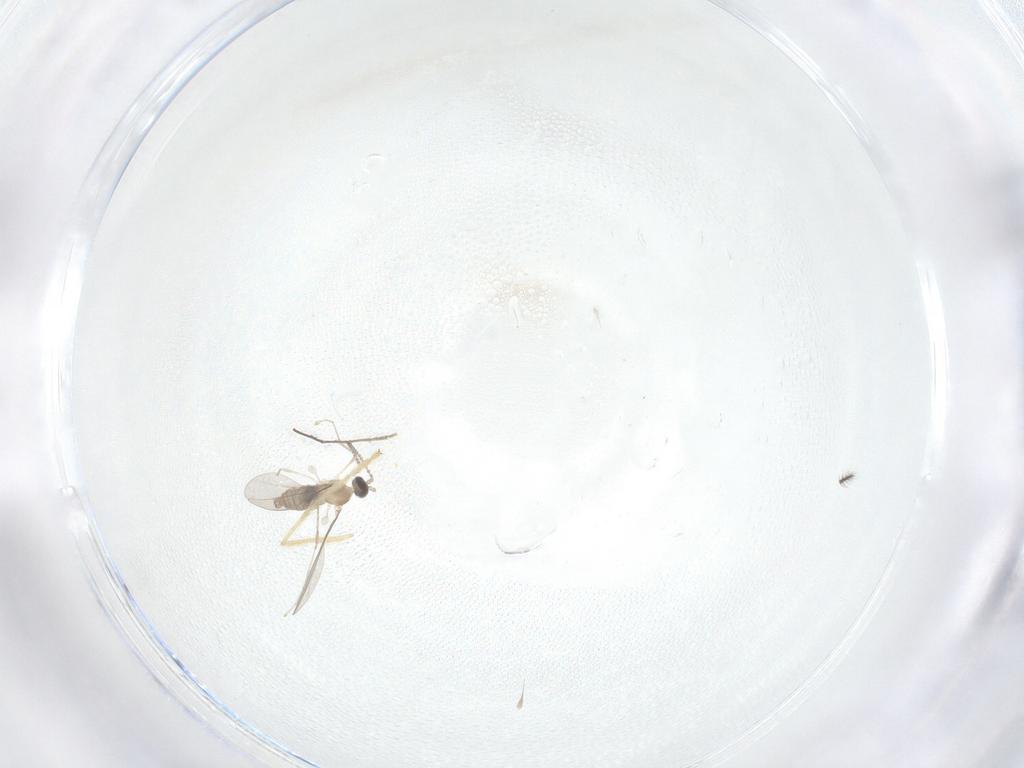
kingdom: Animalia
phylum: Arthropoda
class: Insecta
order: Diptera
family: Cecidomyiidae
